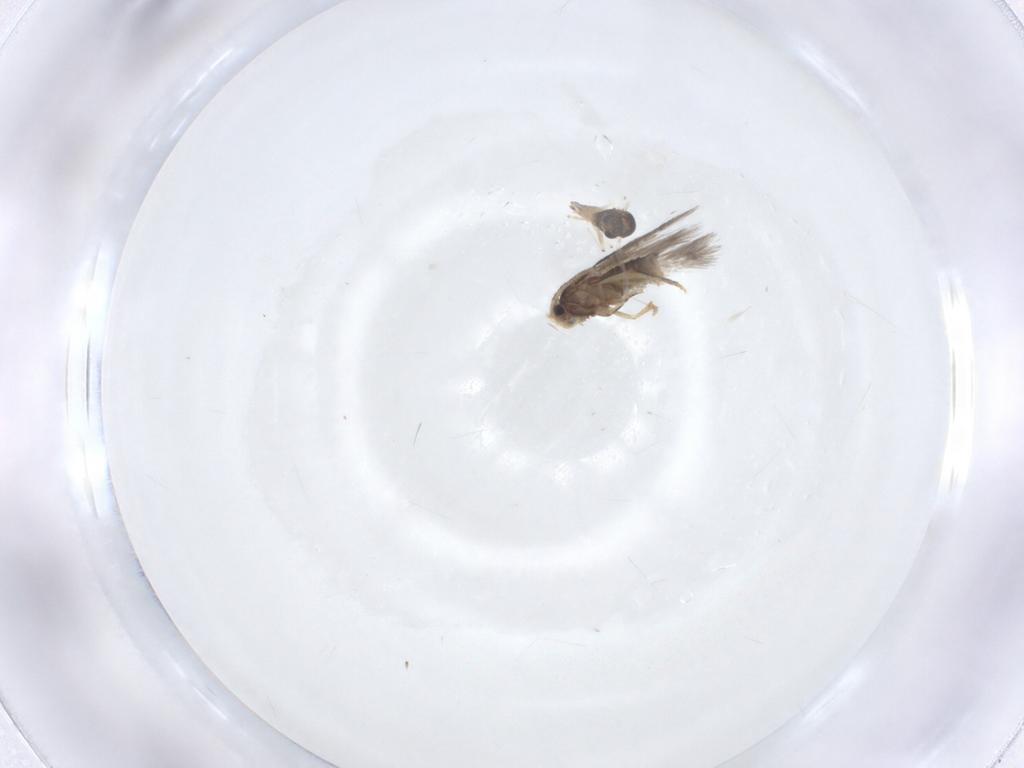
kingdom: Animalia
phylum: Arthropoda
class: Insecta
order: Lepidoptera
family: Nepticulidae
